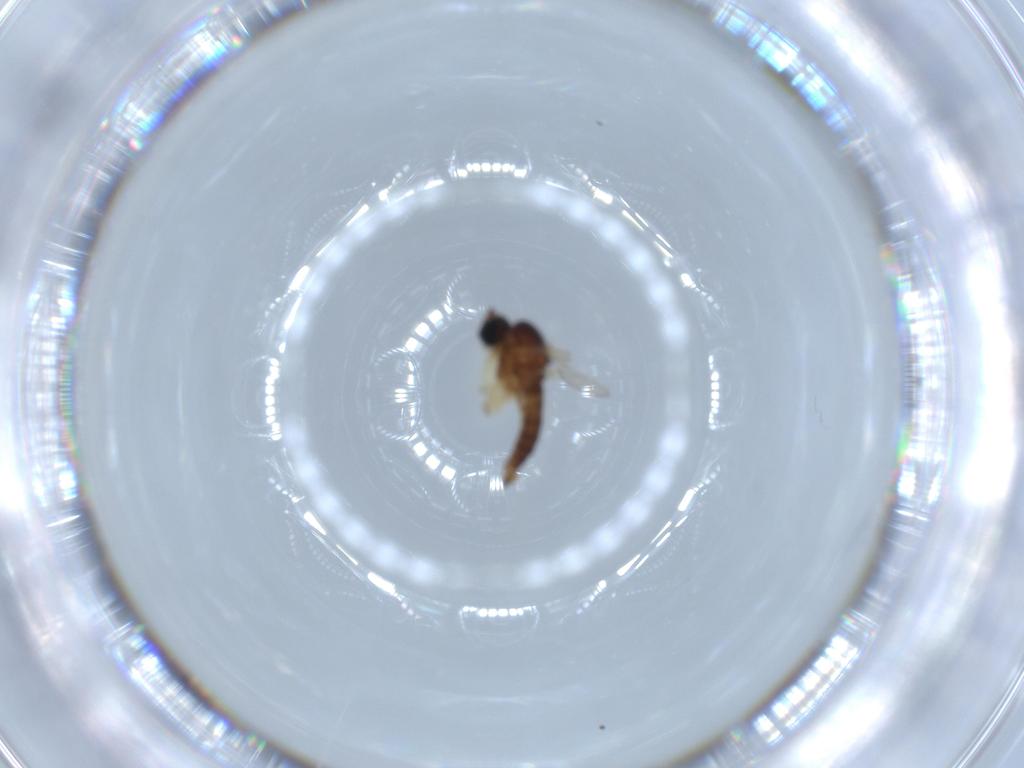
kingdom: Animalia
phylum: Arthropoda
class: Insecta
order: Diptera
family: Sciaridae
